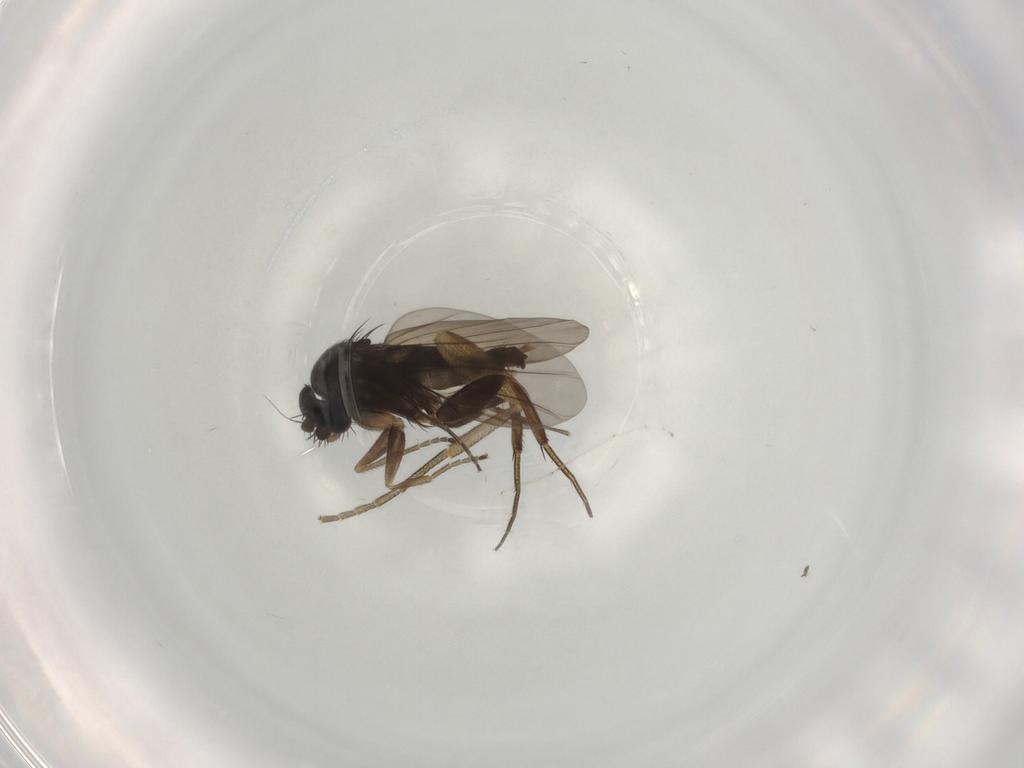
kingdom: Animalia
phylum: Arthropoda
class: Insecta
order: Diptera
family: Phoridae
